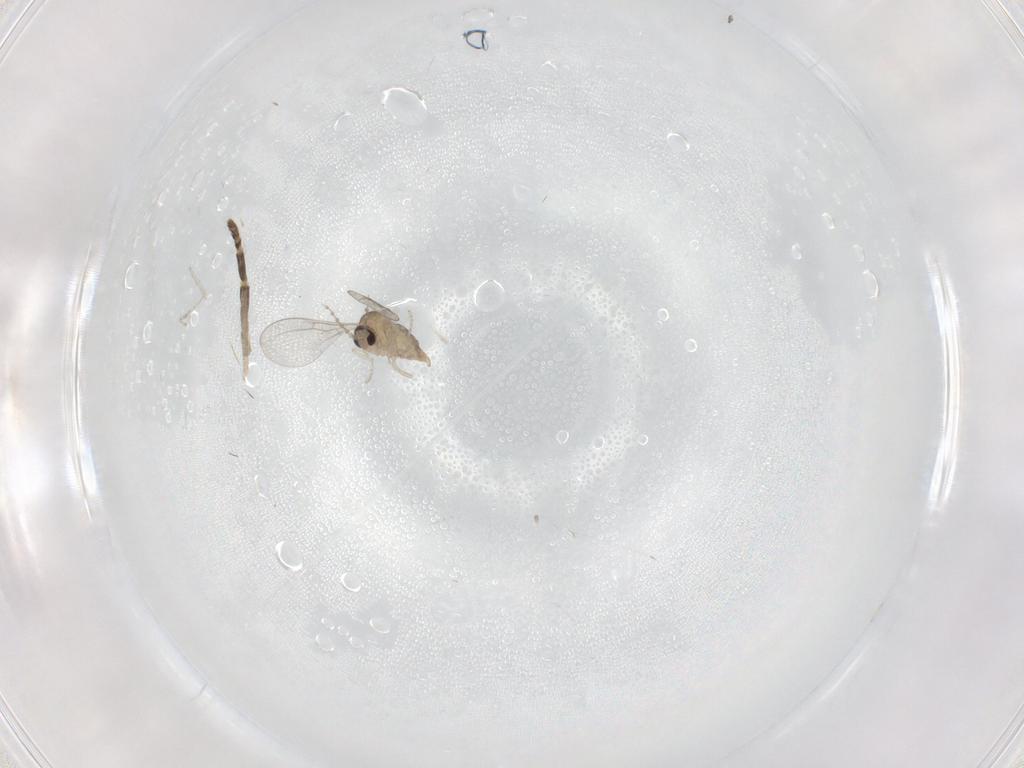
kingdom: Animalia
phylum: Arthropoda
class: Insecta
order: Diptera
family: Cecidomyiidae
